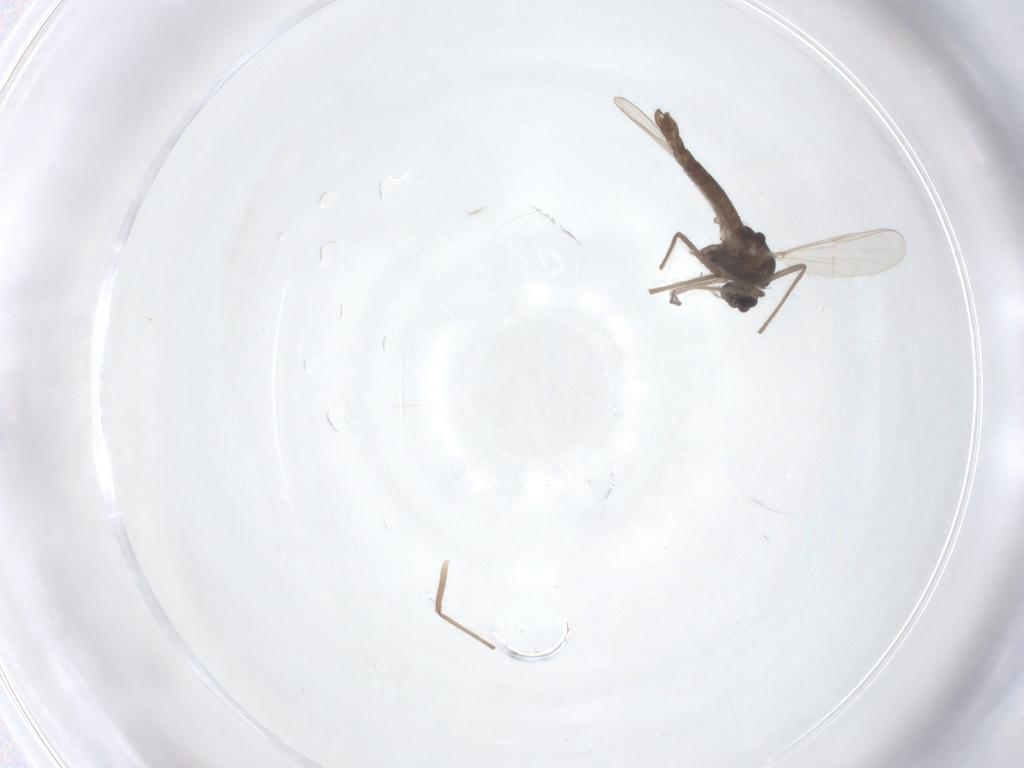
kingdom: Animalia
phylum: Arthropoda
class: Insecta
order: Diptera
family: Chironomidae
